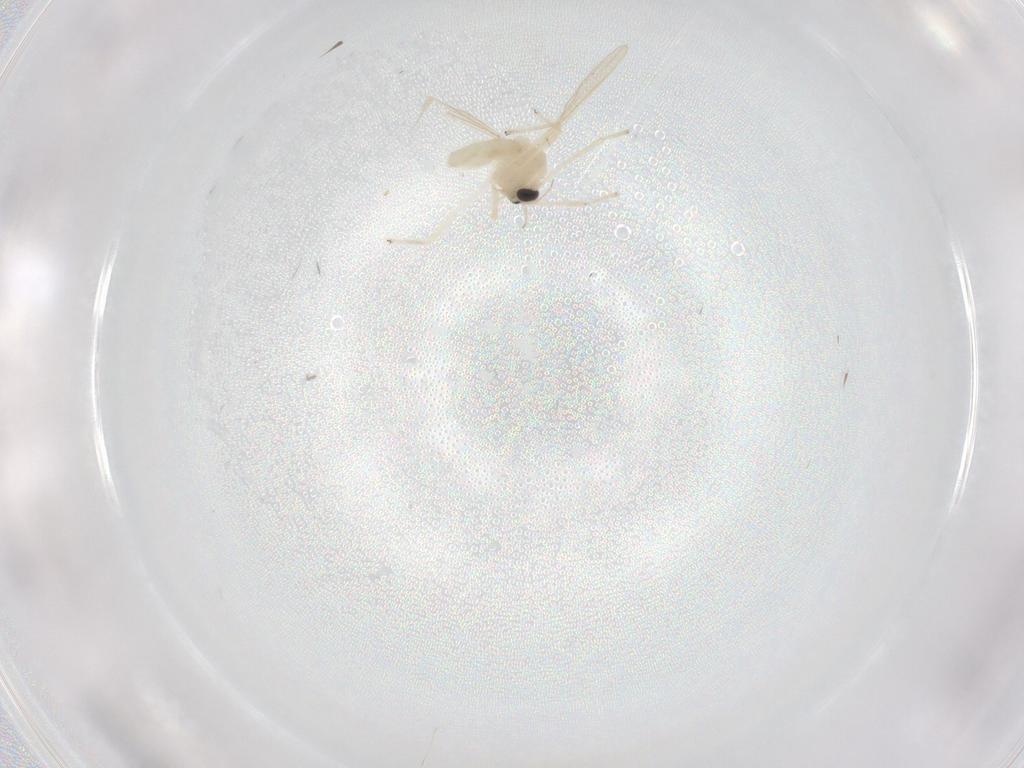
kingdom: Animalia
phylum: Arthropoda
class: Insecta
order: Diptera
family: Chironomidae
